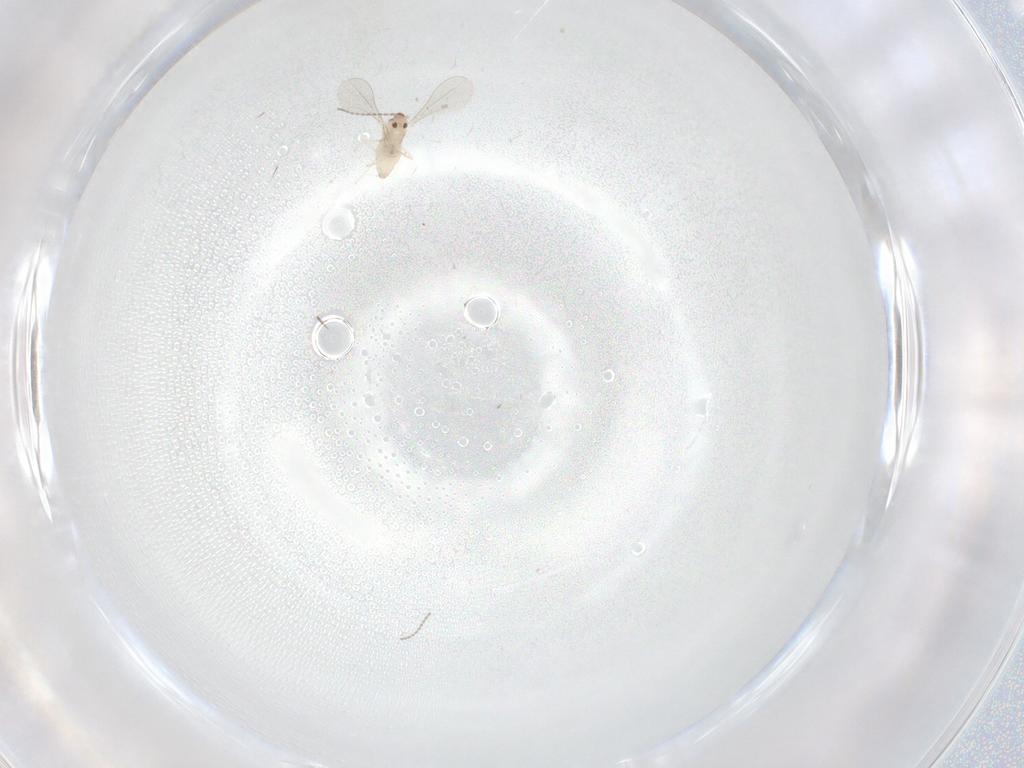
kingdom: Animalia
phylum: Arthropoda
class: Insecta
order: Diptera
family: Cecidomyiidae
